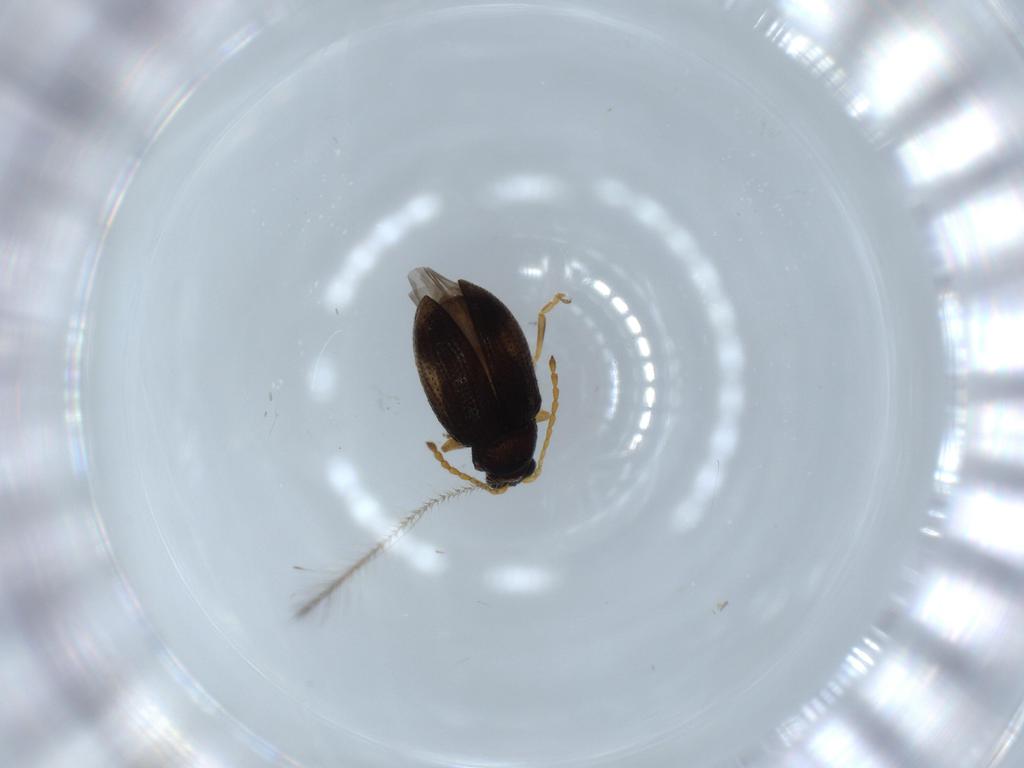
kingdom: Animalia
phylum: Arthropoda
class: Insecta
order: Coleoptera
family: Chrysomelidae
